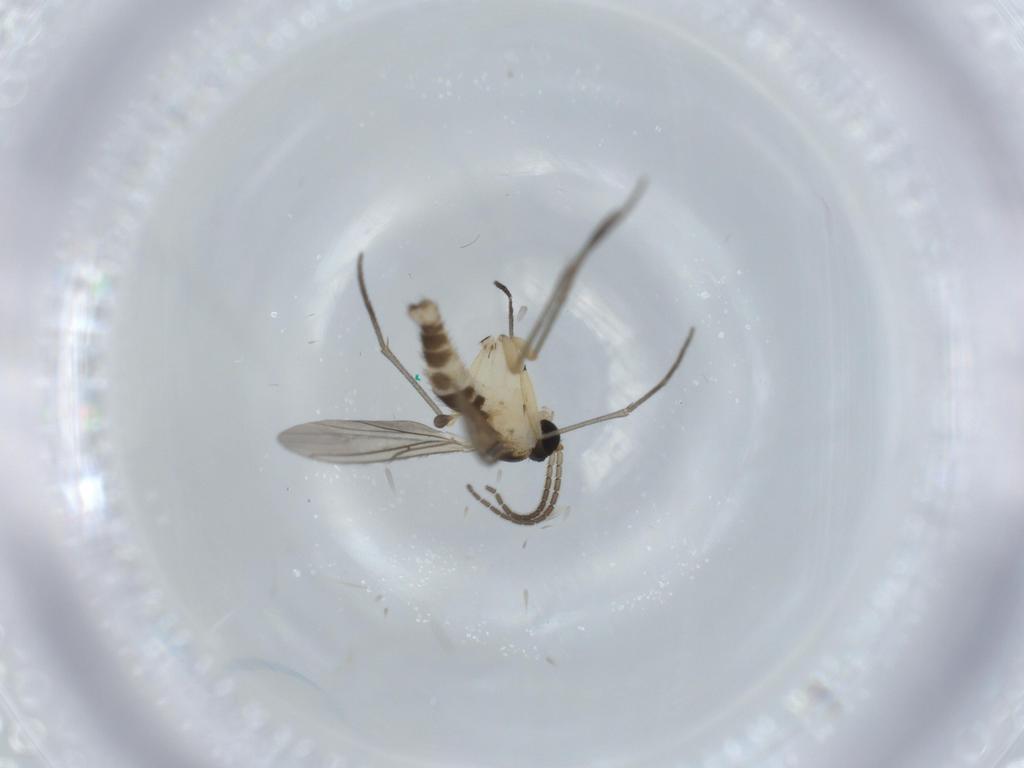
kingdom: Animalia
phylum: Arthropoda
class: Insecta
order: Diptera
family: Sciaridae
